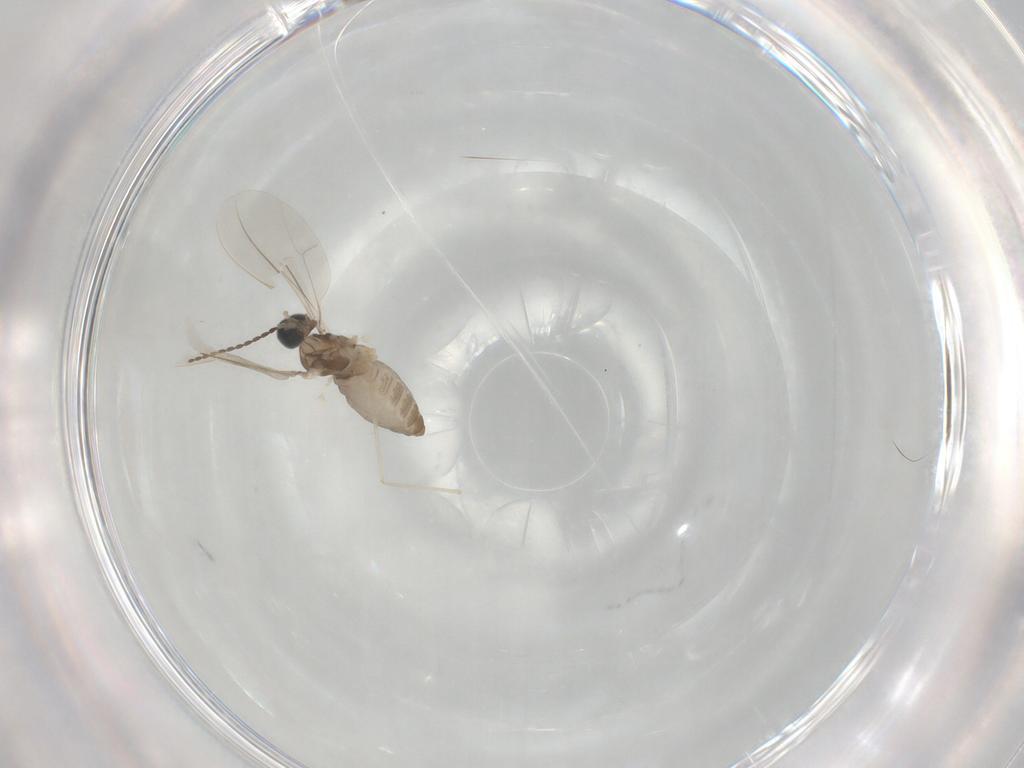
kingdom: Animalia
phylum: Arthropoda
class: Insecta
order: Diptera
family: Cecidomyiidae
